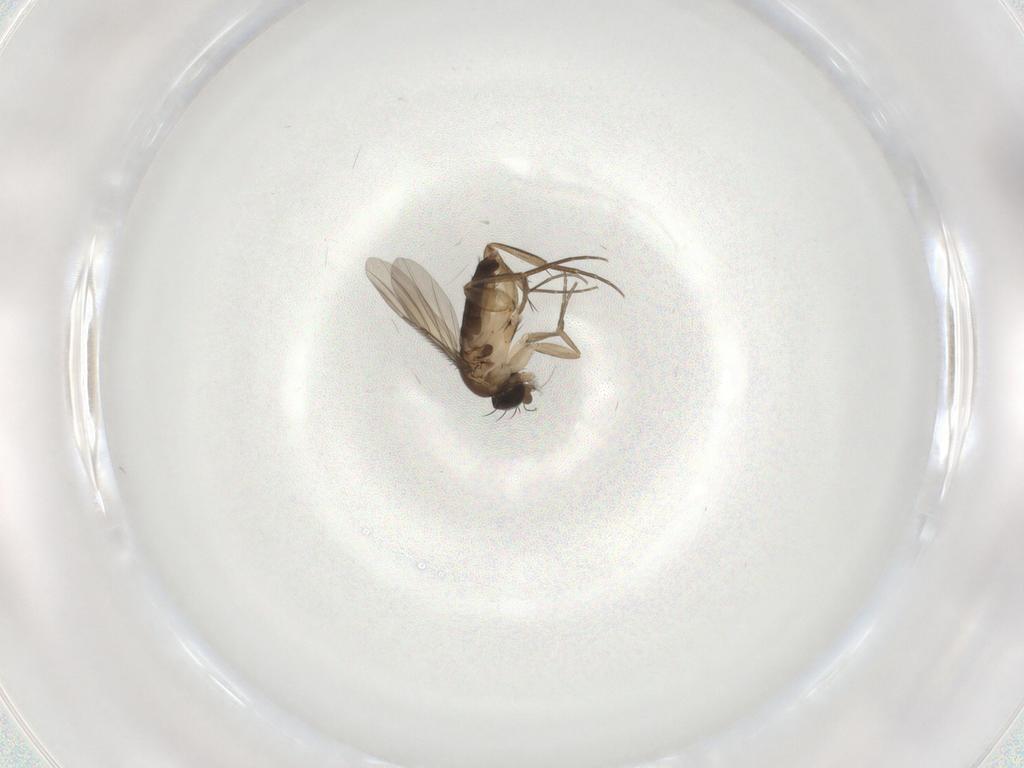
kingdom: Animalia
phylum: Arthropoda
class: Insecta
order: Diptera
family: Phoridae
